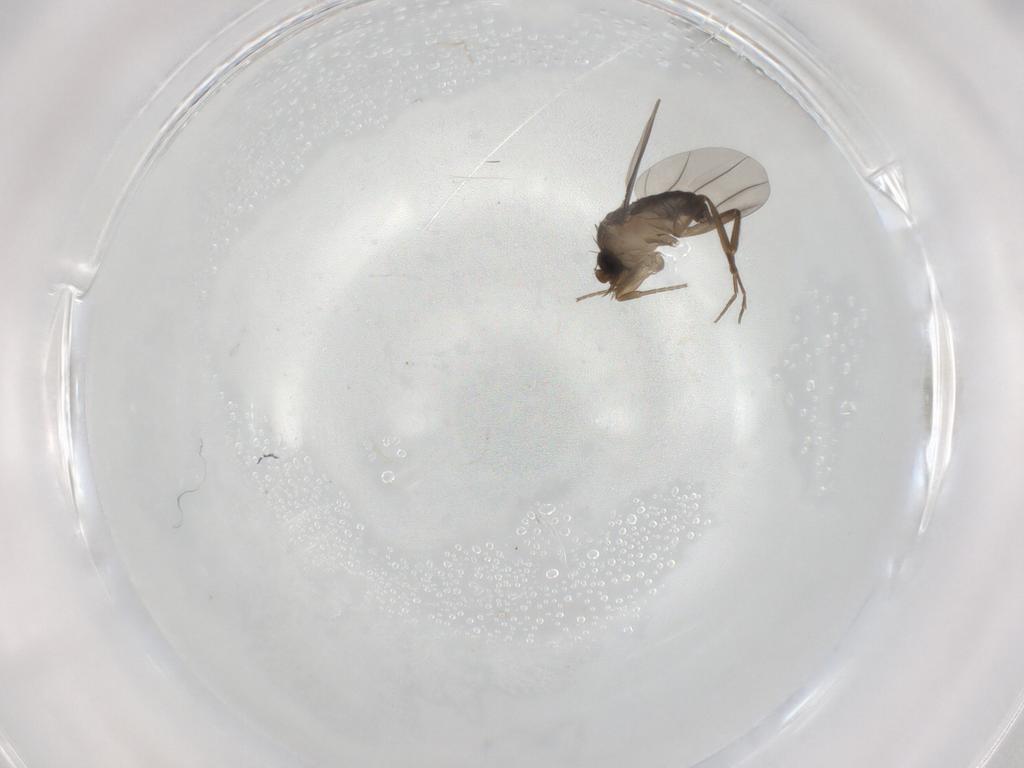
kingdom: Animalia
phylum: Arthropoda
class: Insecta
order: Diptera
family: Phoridae
